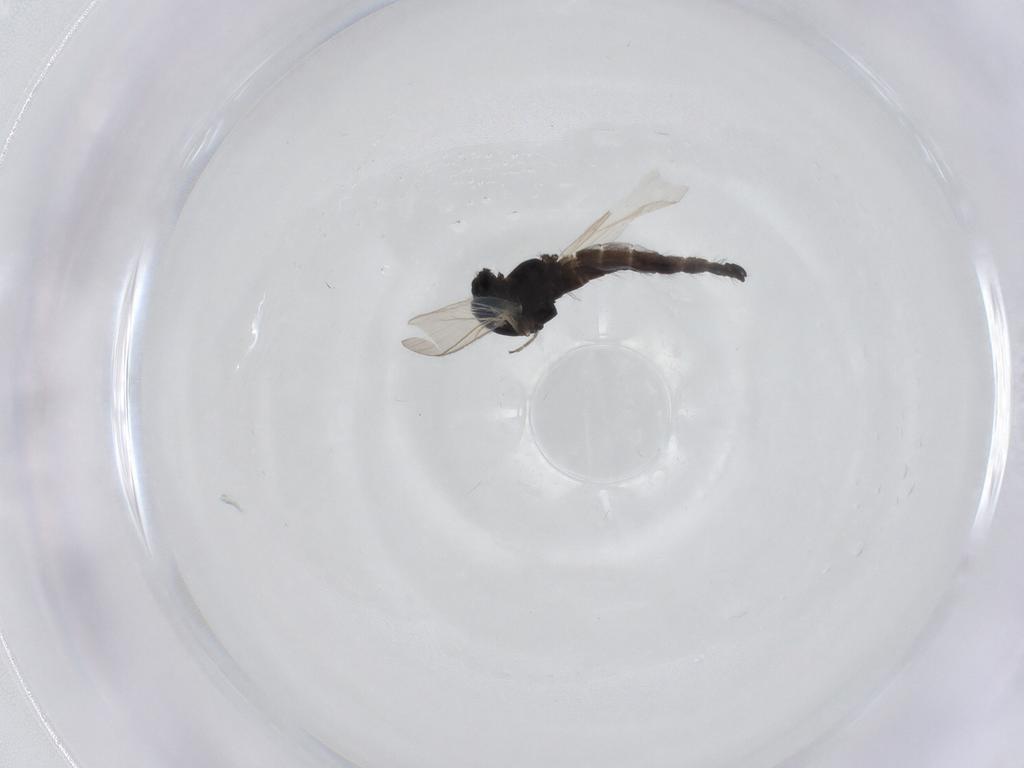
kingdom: Animalia
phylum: Arthropoda
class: Insecta
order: Diptera
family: Chironomidae
